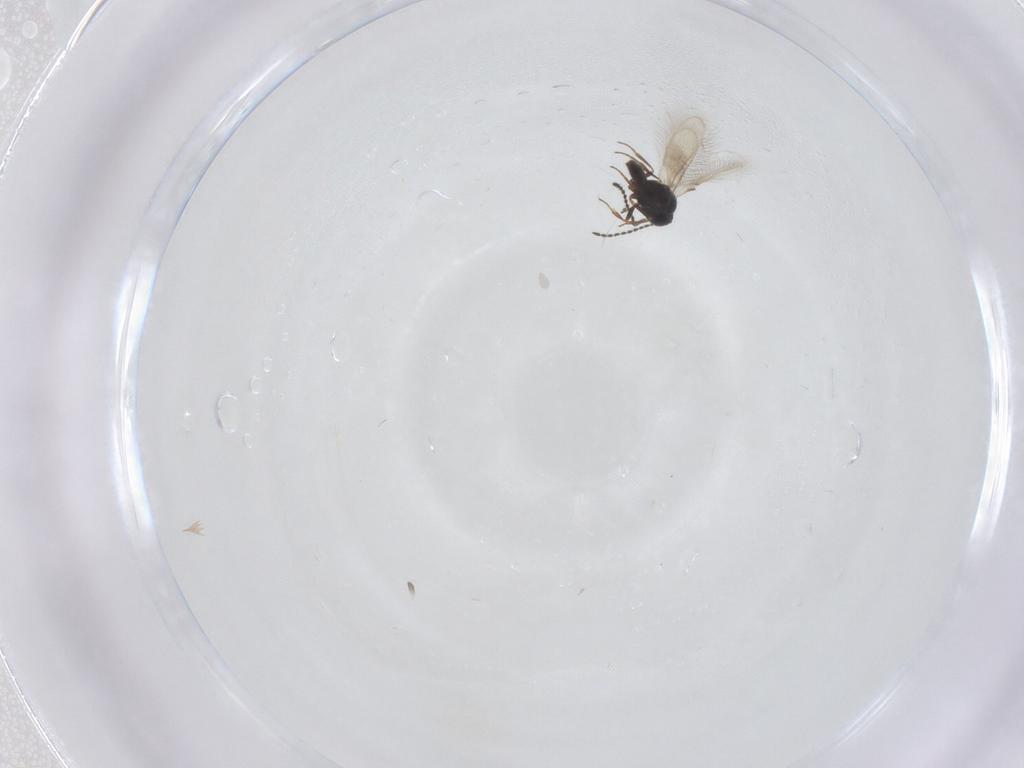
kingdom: Animalia
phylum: Arthropoda
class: Insecta
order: Hymenoptera
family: Scelionidae
